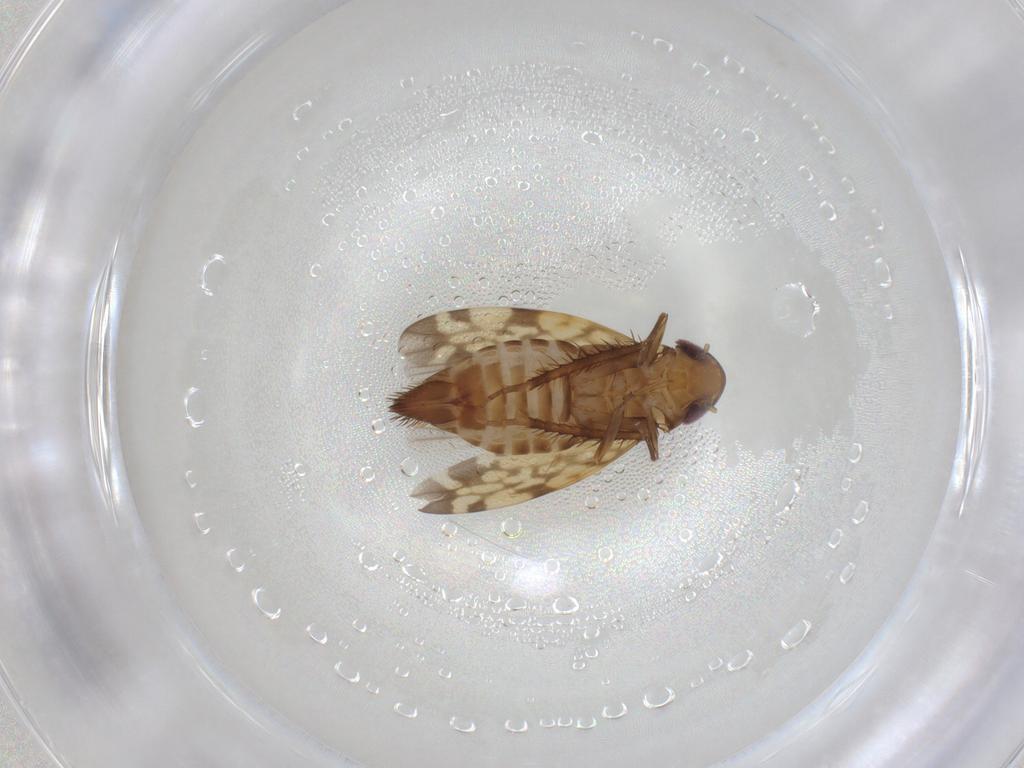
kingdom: Animalia
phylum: Arthropoda
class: Insecta
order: Hemiptera
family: Cicadellidae
